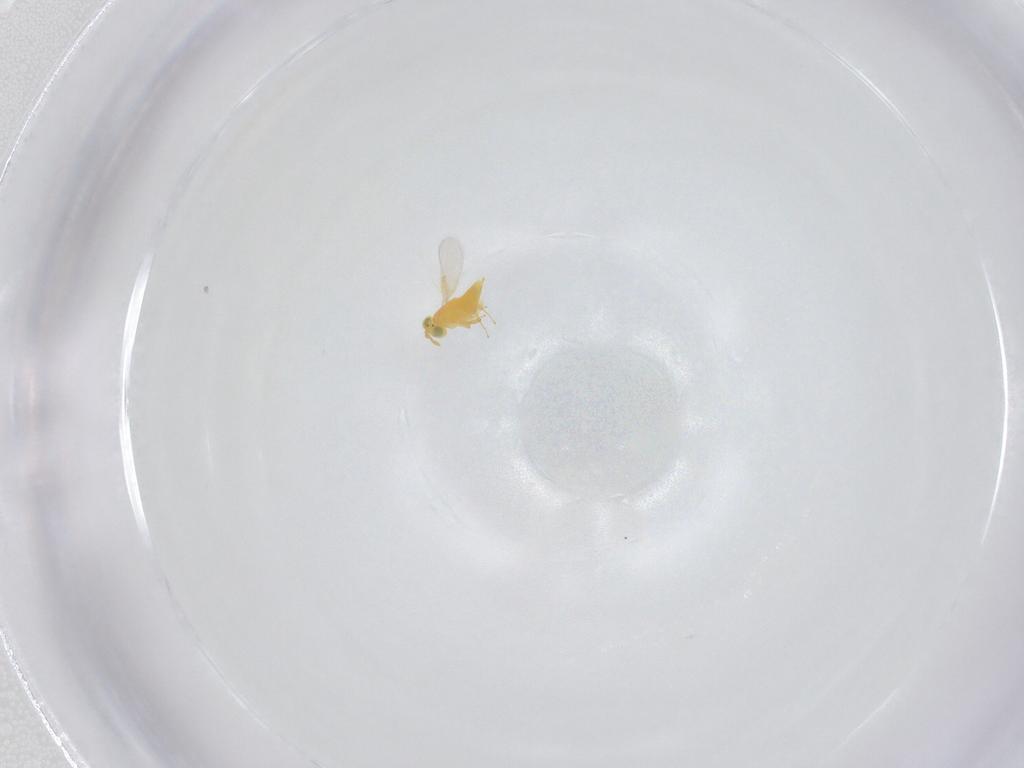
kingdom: Animalia
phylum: Arthropoda
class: Insecta
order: Hymenoptera
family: Aphelinidae
